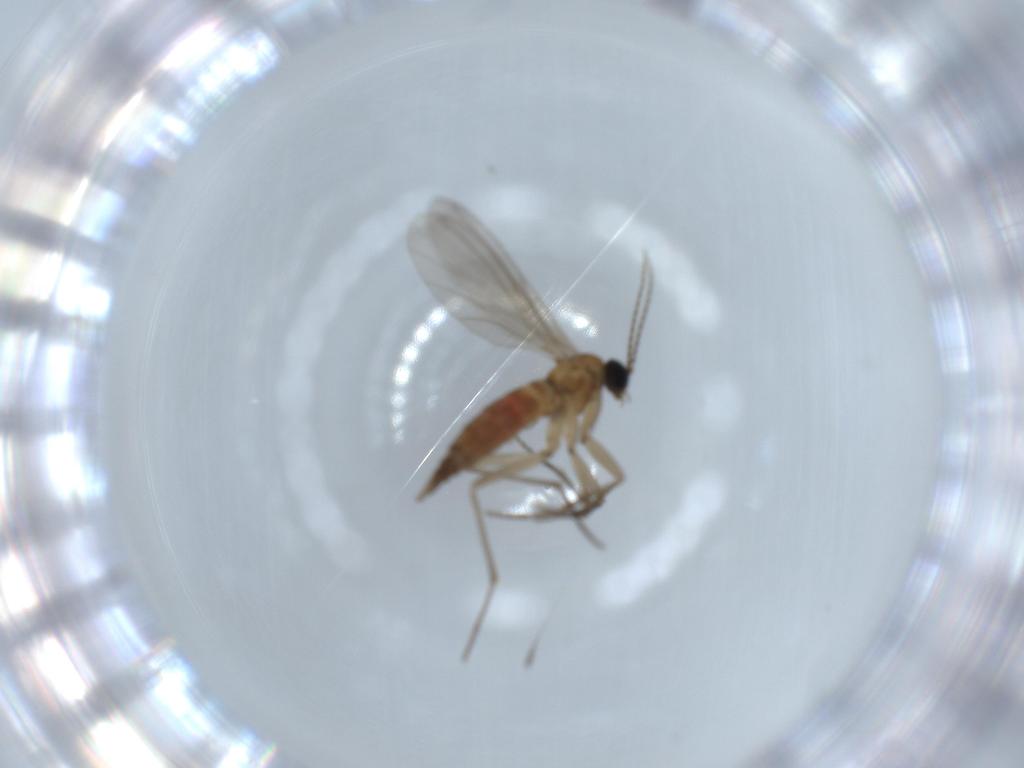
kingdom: Animalia
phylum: Arthropoda
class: Insecta
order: Diptera
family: Sciaridae
